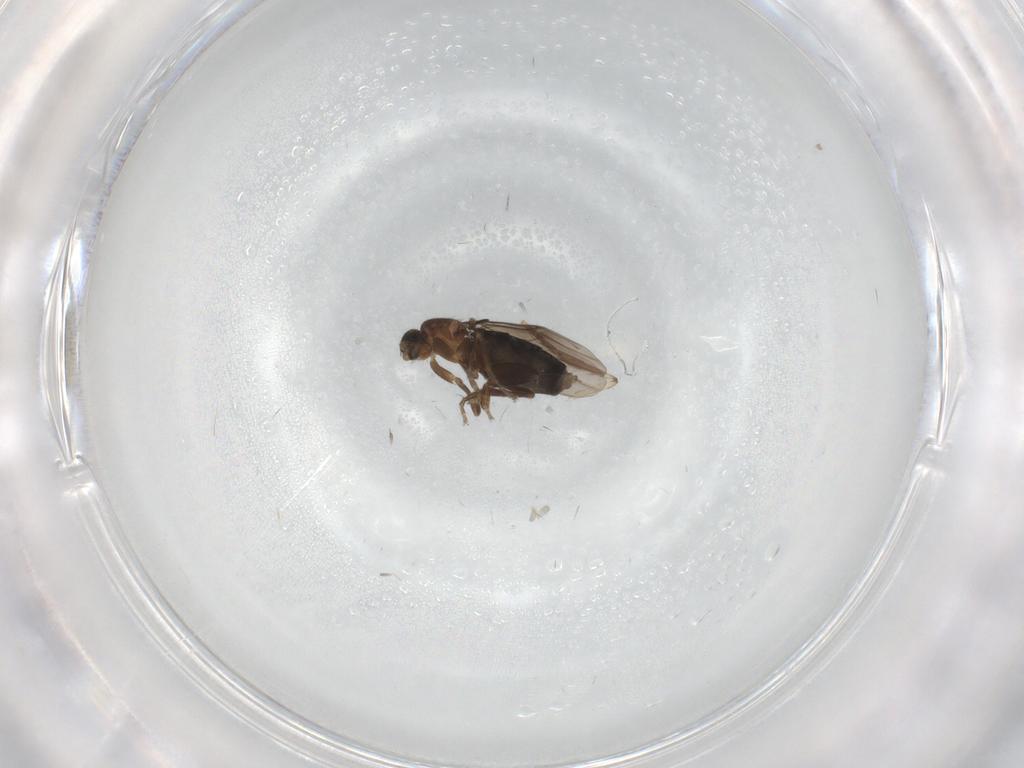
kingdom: Animalia
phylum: Arthropoda
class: Insecta
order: Diptera
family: Psychodidae
